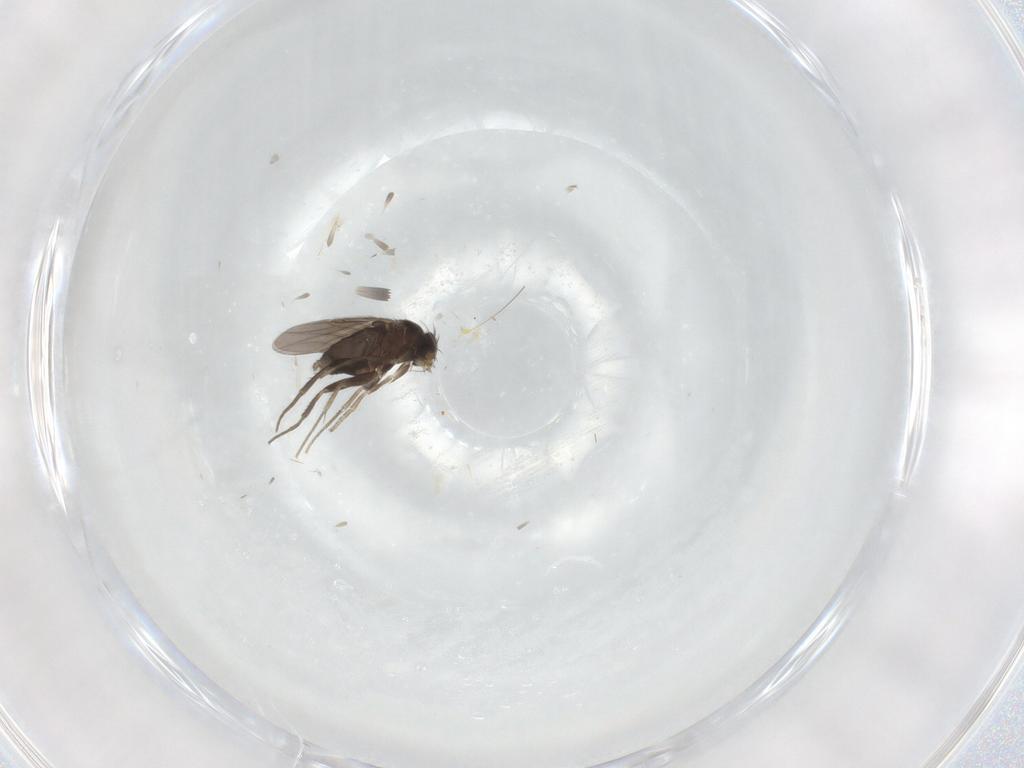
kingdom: Animalia
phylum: Arthropoda
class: Insecta
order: Diptera
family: Phoridae
